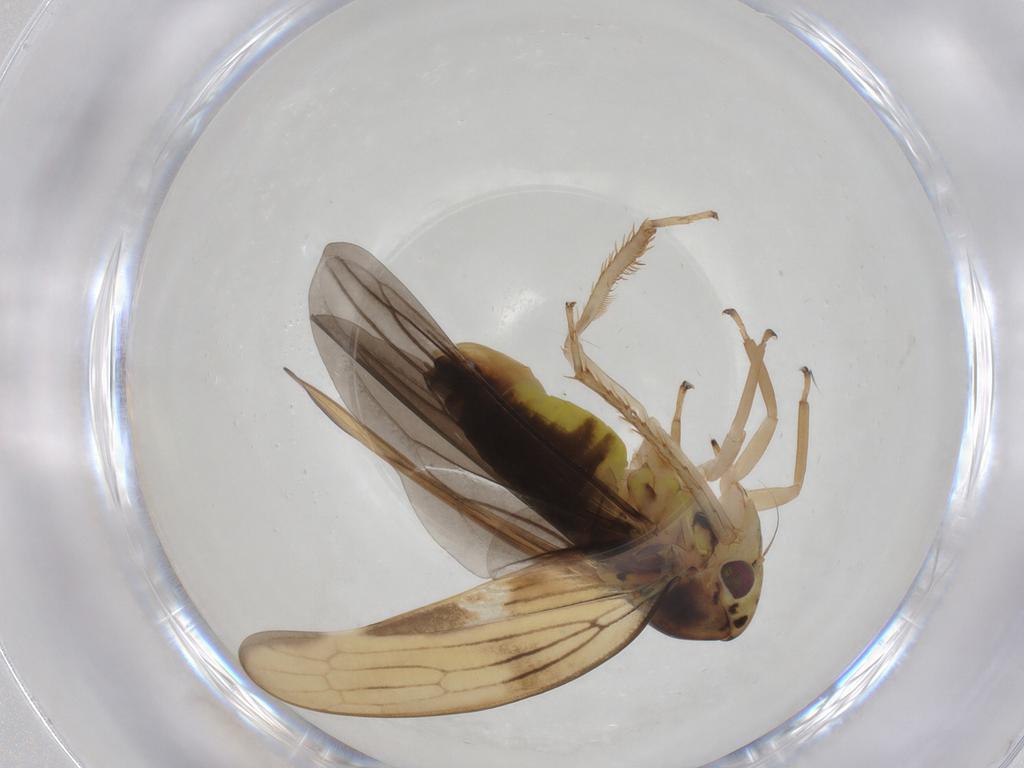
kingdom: Animalia
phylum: Arthropoda
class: Insecta
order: Hemiptera
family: Cicadellidae
